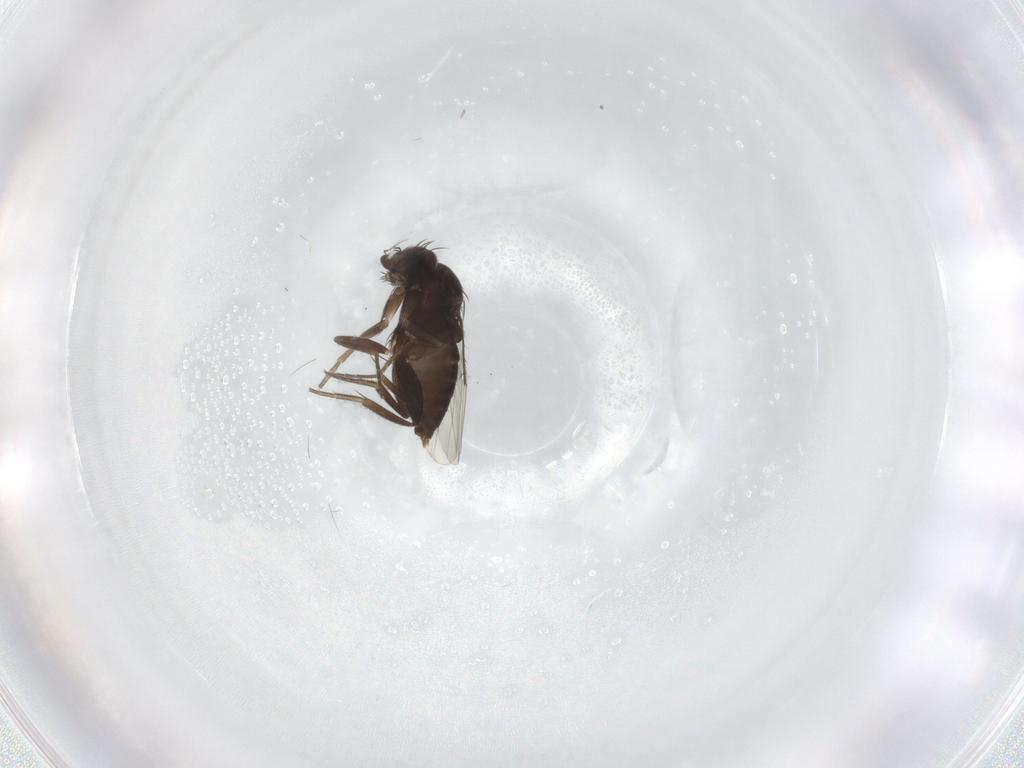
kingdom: Animalia
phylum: Arthropoda
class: Insecta
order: Diptera
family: Phoridae
